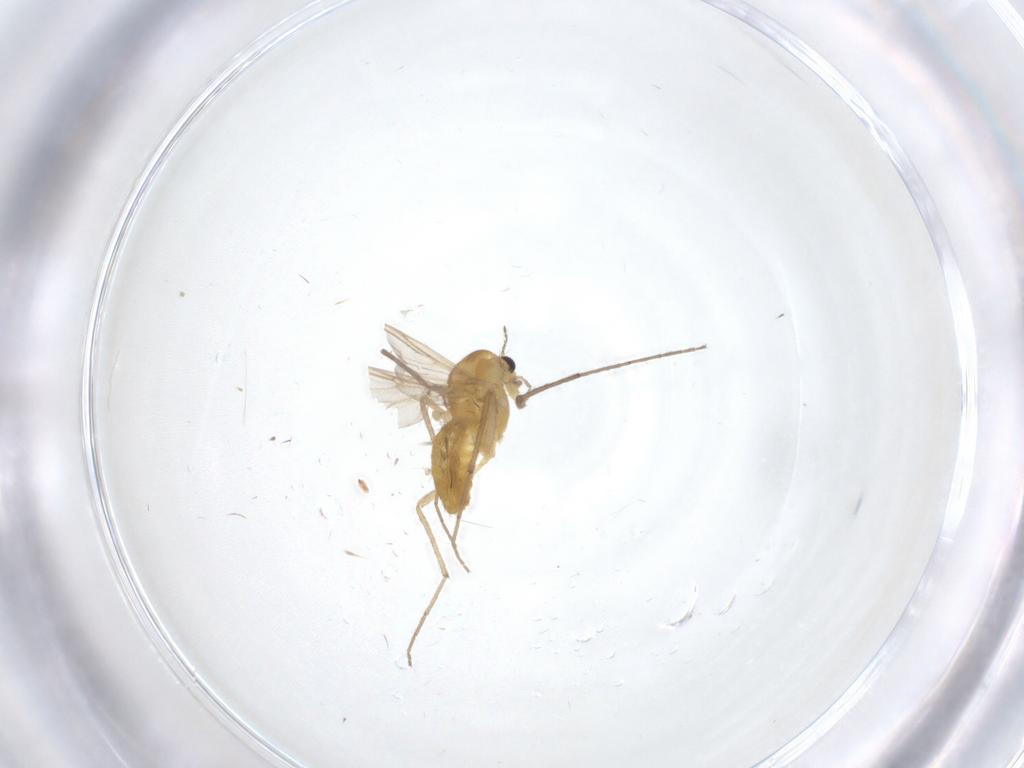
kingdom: Animalia
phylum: Arthropoda
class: Insecta
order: Diptera
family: Chironomidae
